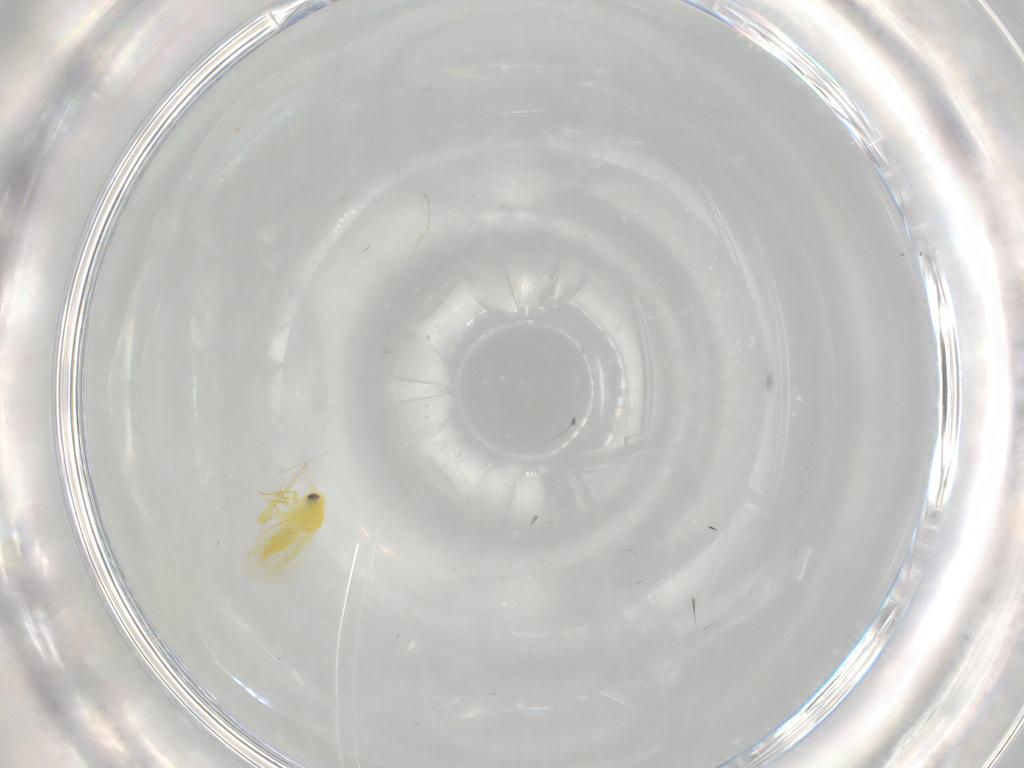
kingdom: Animalia
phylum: Arthropoda
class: Insecta
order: Hemiptera
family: Aleyrodidae
